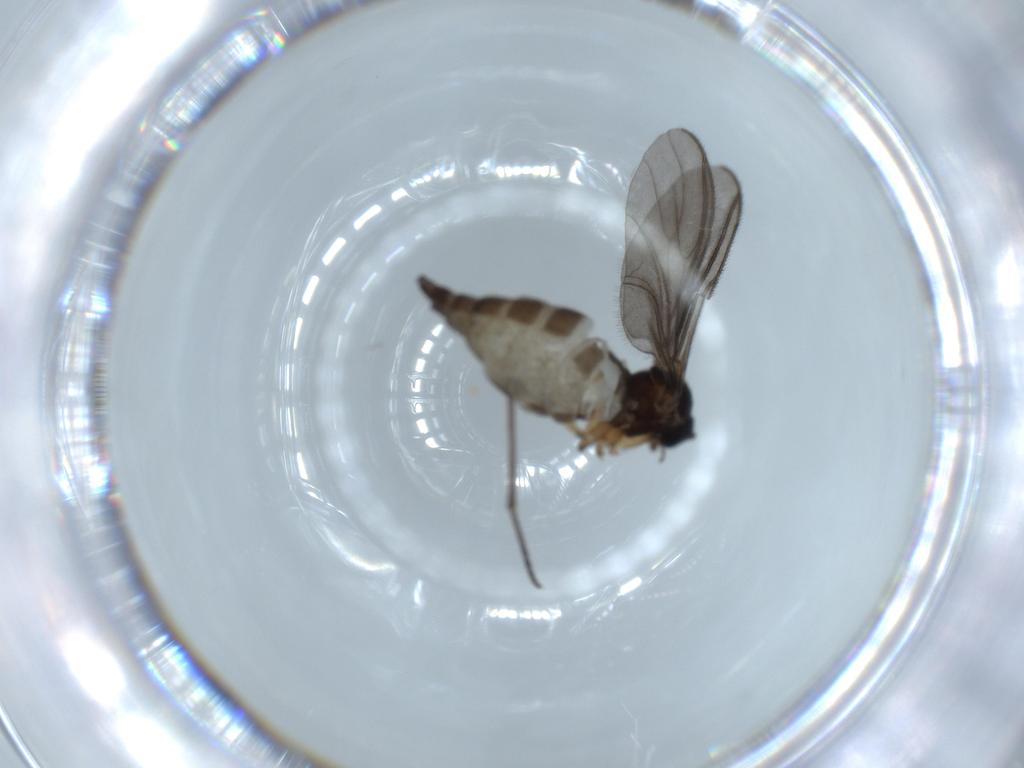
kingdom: Animalia
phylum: Arthropoda
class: Insecta
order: Diptera
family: Sciaridae
